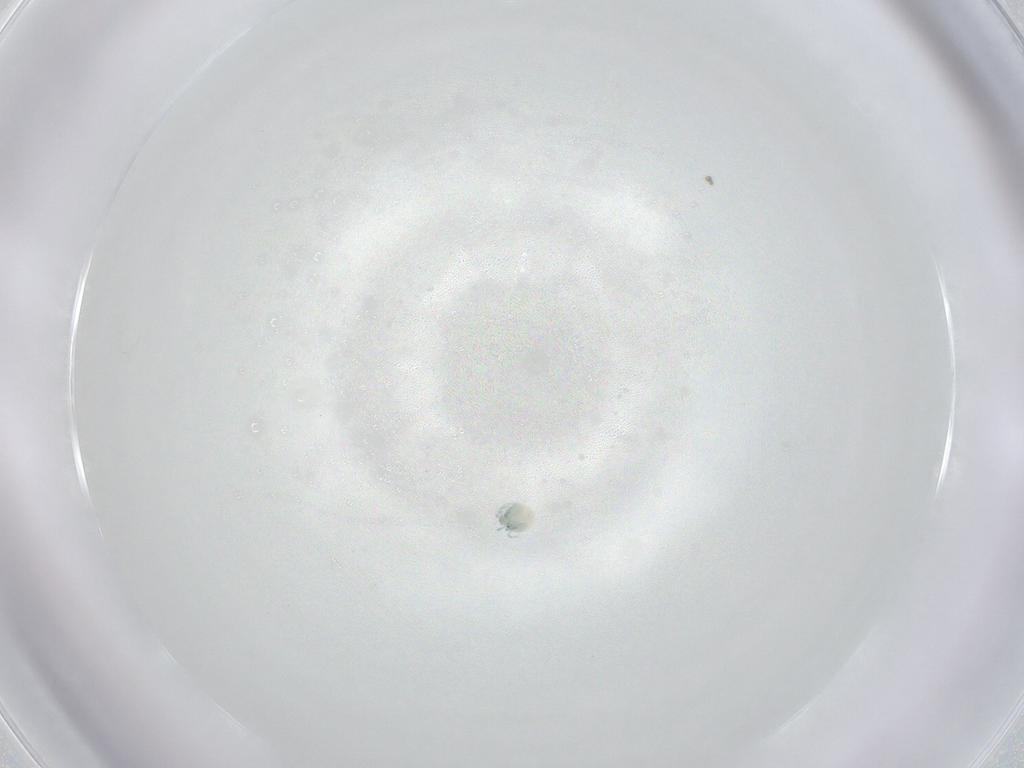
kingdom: Animalia
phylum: Arthropoda
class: Arachnida
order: Trombidiformes
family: Arrenuridae
